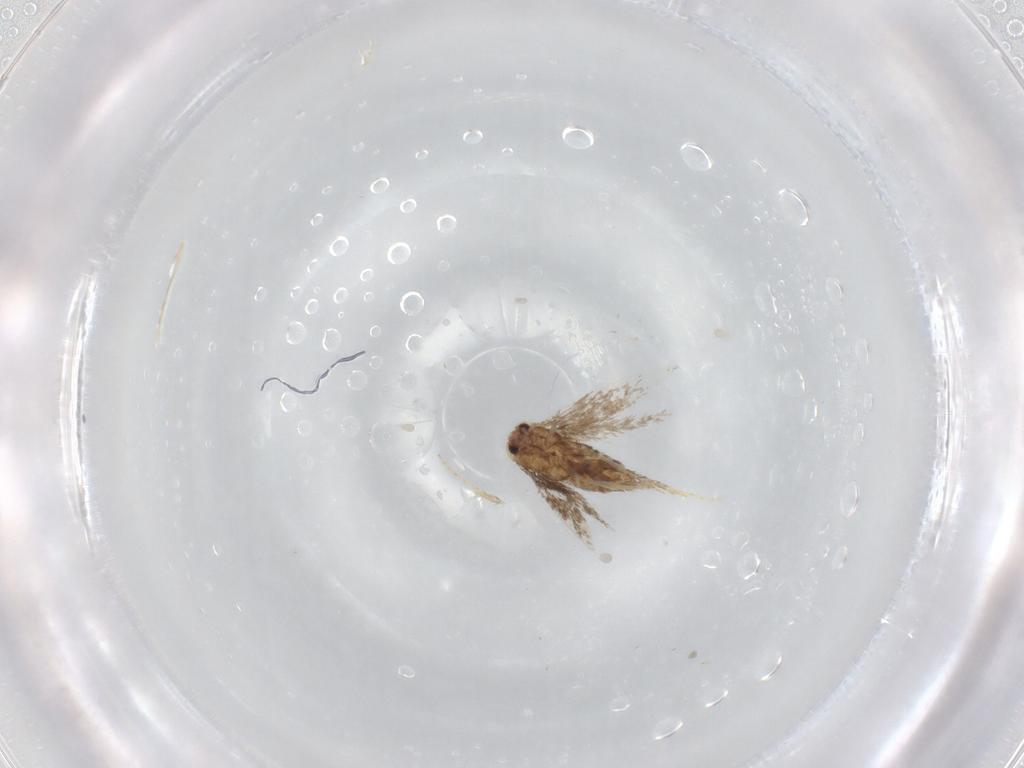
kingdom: Animalia
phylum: Arthropoda
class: Insecta
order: Lepidoptera
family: Nepticulidae
